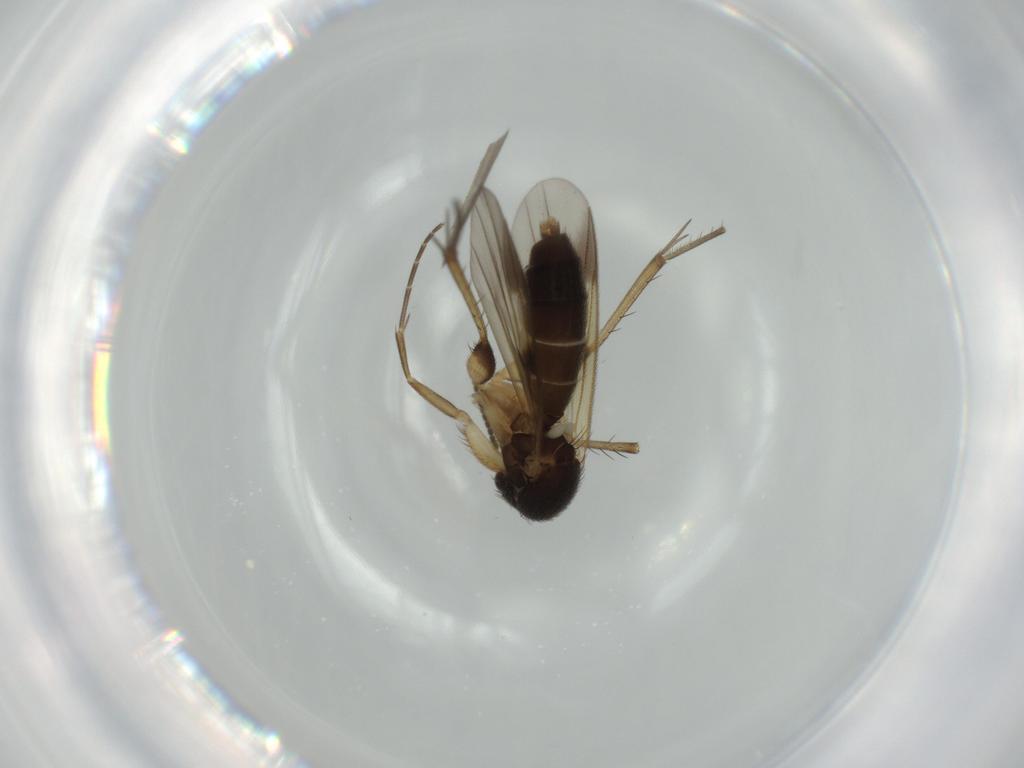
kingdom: Animalia
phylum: Arthropoda
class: Insecta
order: Diptera
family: Mycetophilidae
